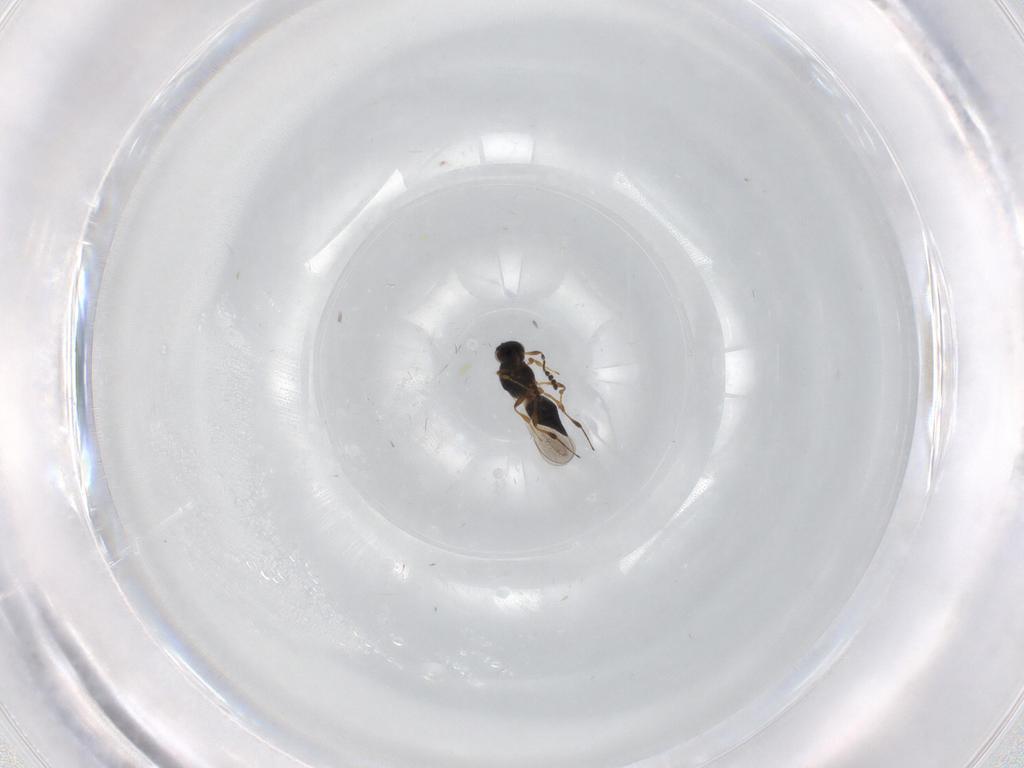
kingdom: Animalia
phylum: Arthropoda
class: Insecta
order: Hymenoptera
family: Platygastridae
